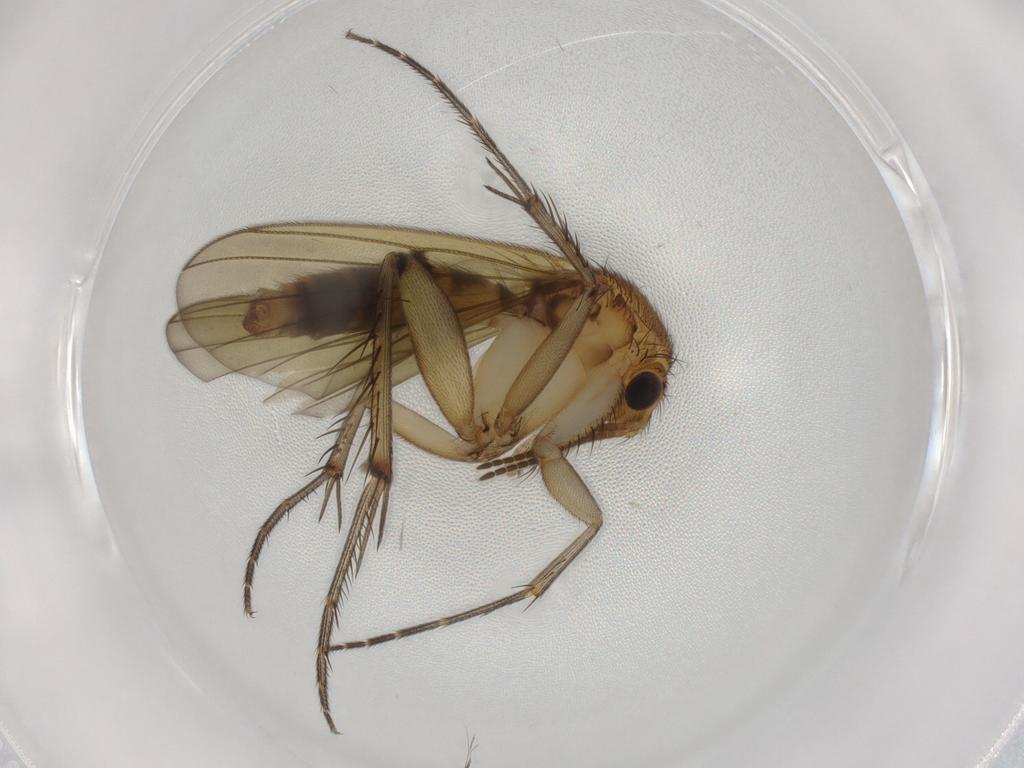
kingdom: Animalia
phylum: Arthropoda
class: Insecta
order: Diptera
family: Mycetophilidae
